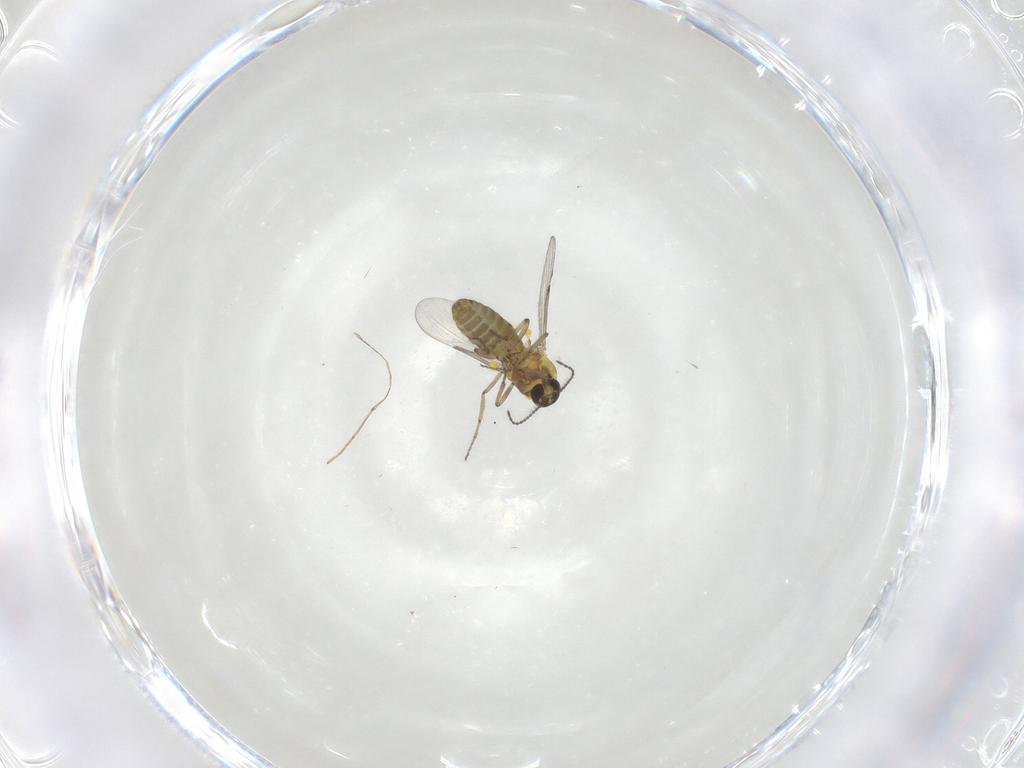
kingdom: Animalia
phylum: Arthropoda
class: Insecta
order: Diptera
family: Ceratopogonidae
